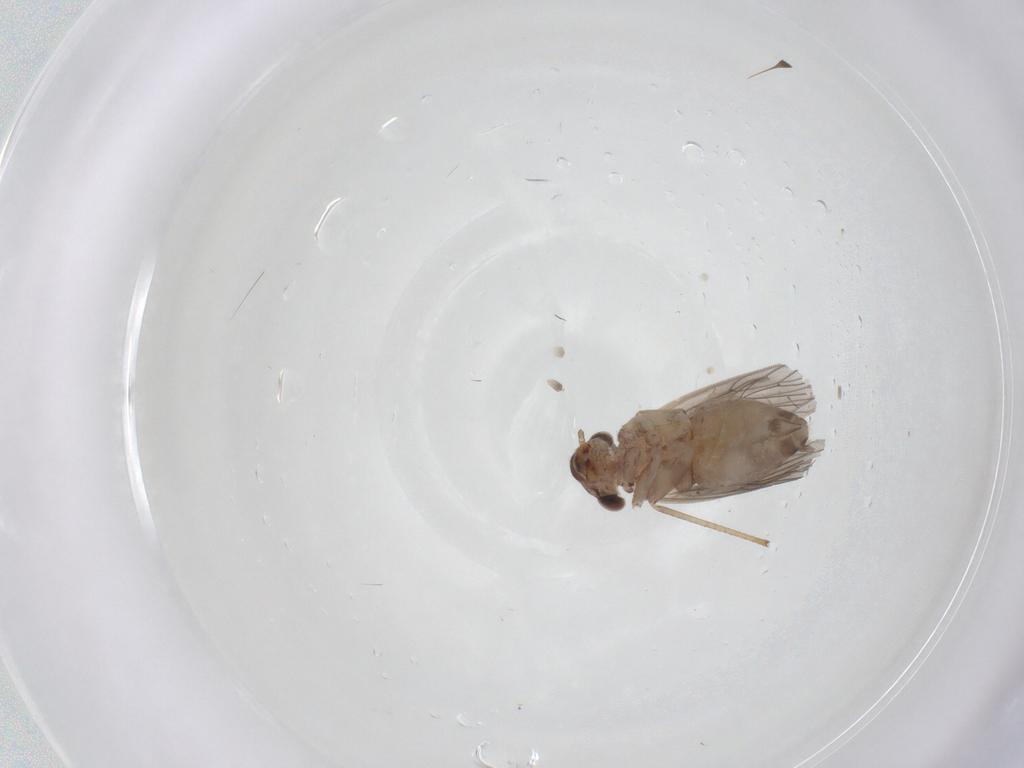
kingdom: Animalia
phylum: Arthropoda
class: Insecta
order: Psocodea
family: Lepidopsocidae
